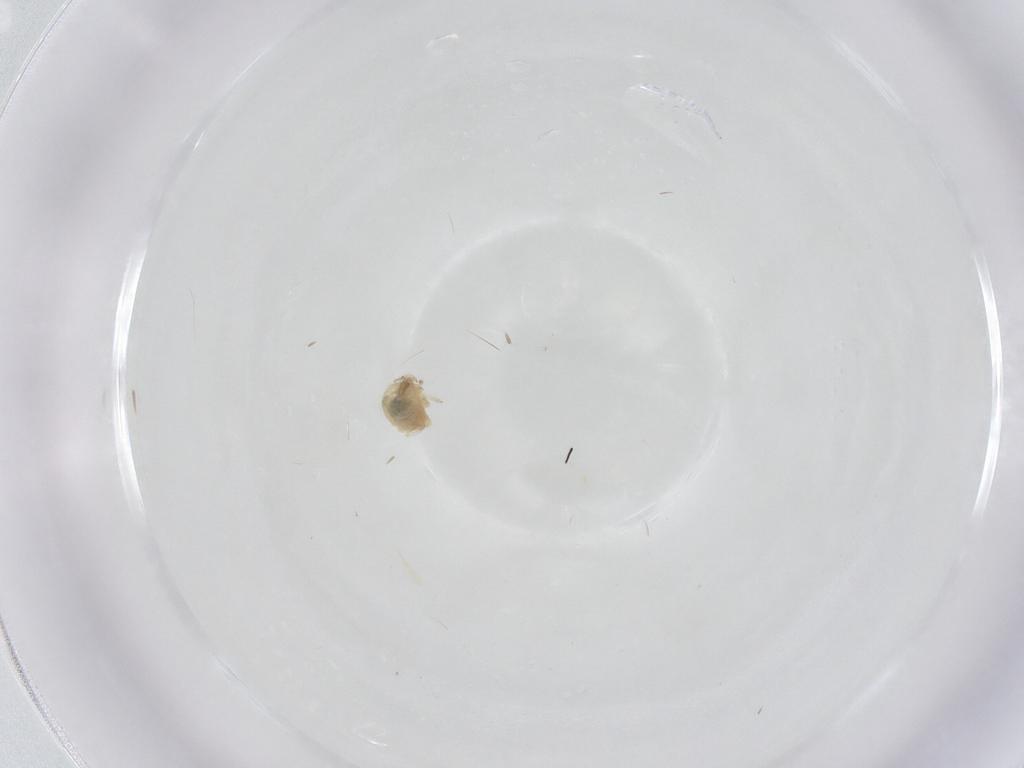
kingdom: Animalia
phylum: Arthropoda
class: Insecta
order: Neuroptera
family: Coniopterygidae
